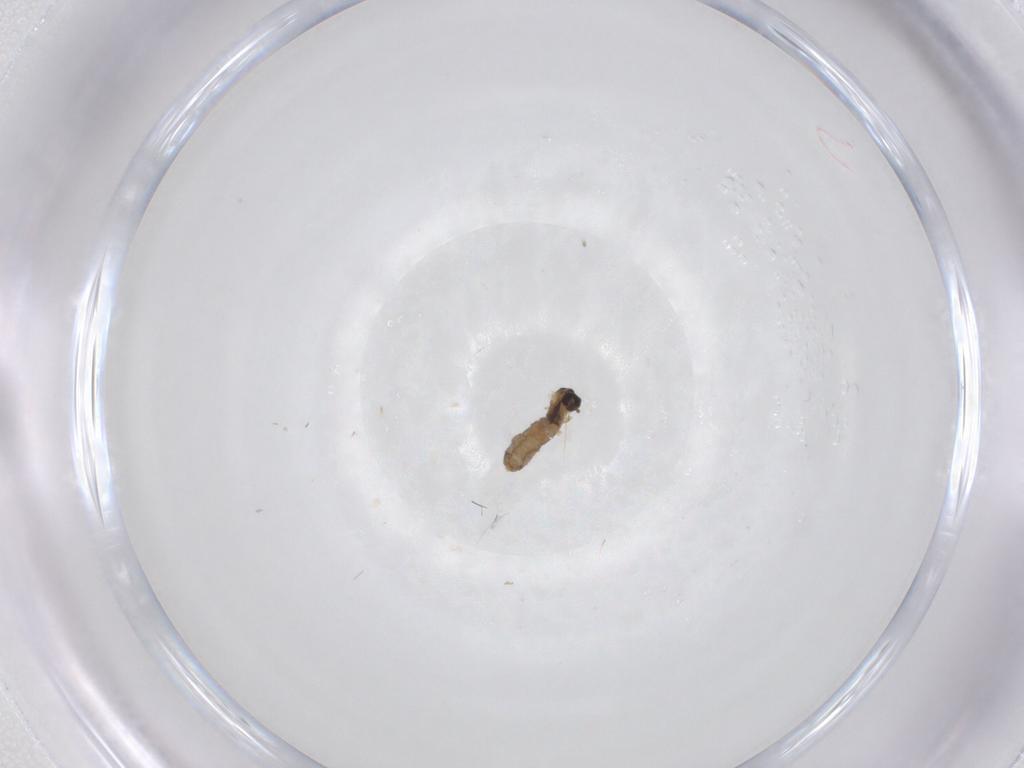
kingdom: Animalia
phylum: Arthropoda
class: Insecta
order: Diptera
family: Cecidomyiidae
